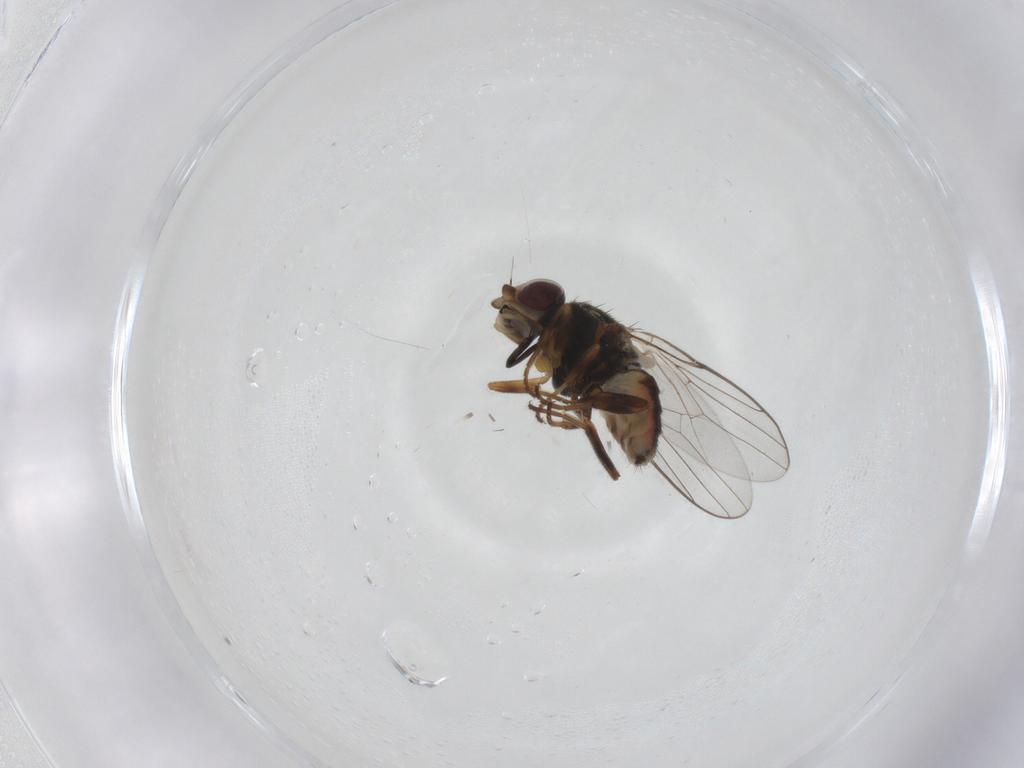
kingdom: Animalia
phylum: Arthropoda
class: Insecta
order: Diptera
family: Chloropidae
